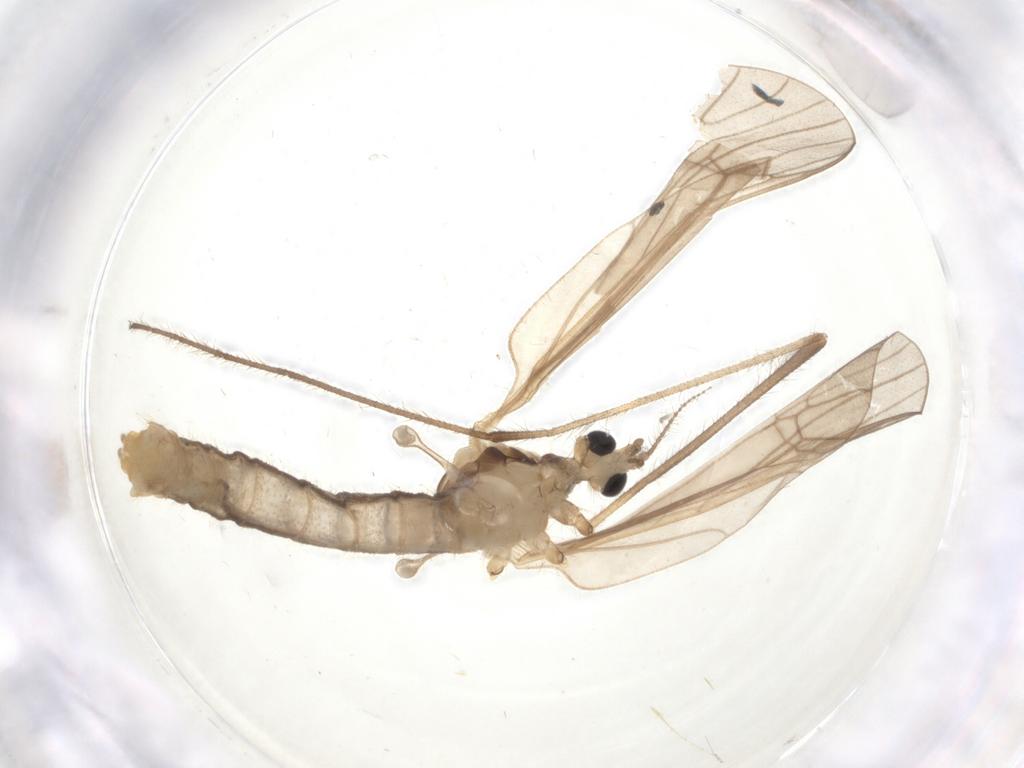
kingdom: Animalia
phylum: Arthropoda
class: Insecta
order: Diptera
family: Limoniidae
